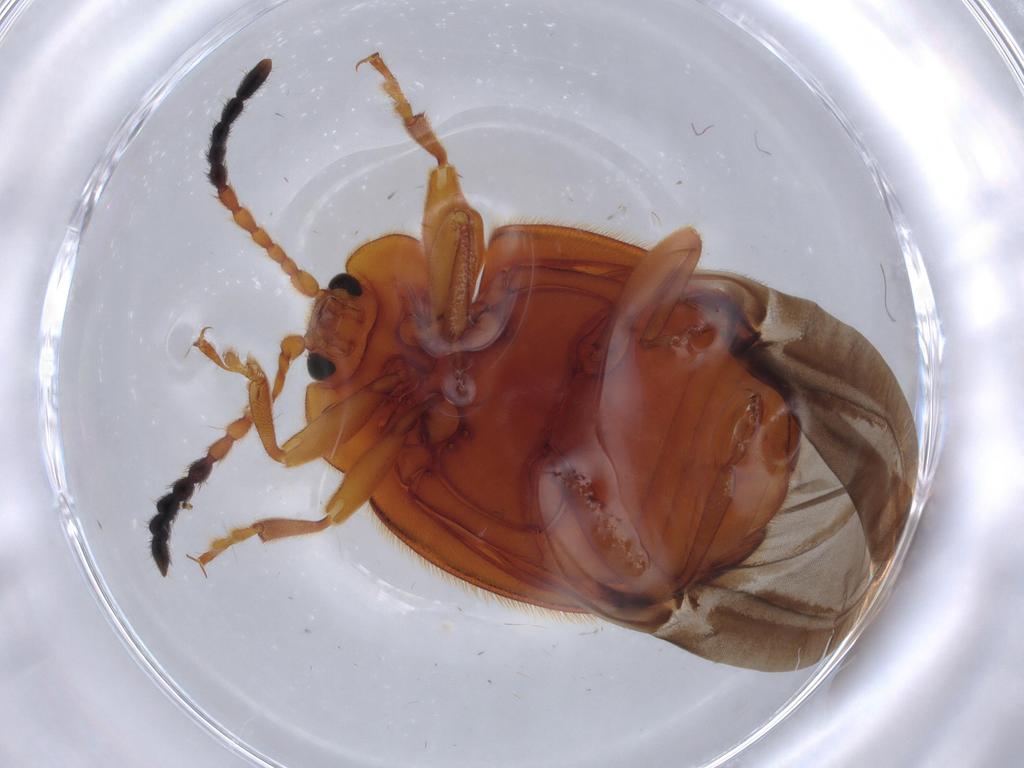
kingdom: Animalia
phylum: Arthropoda
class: Insecta
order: Coleoptera
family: Endomychidae
